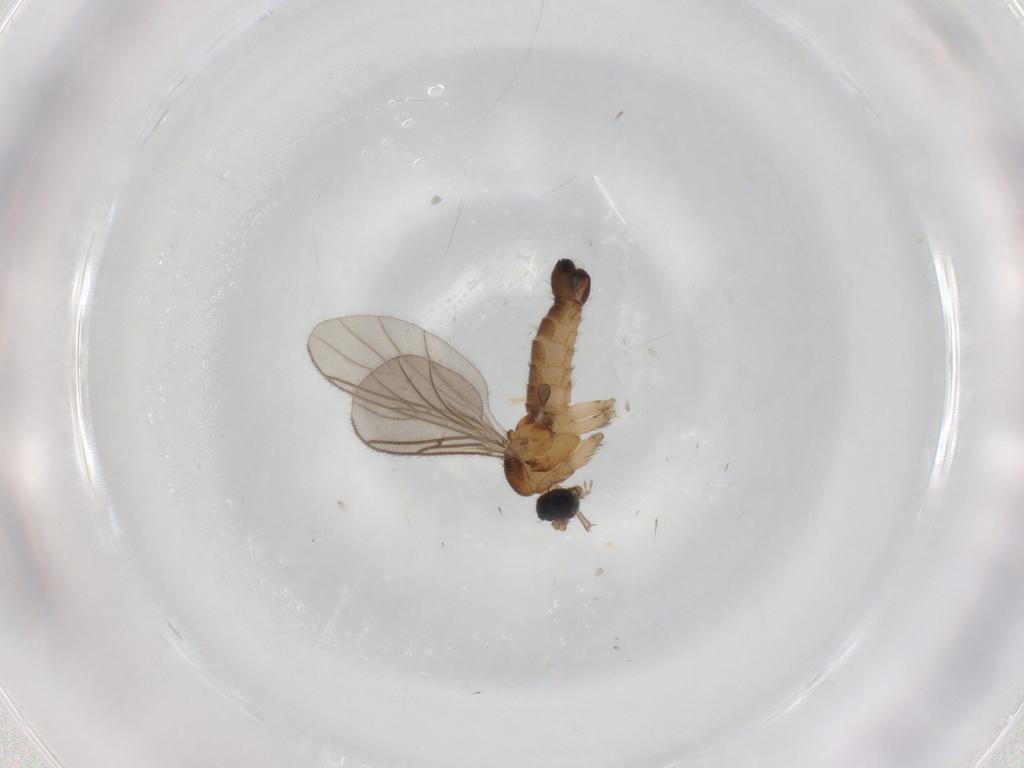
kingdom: Animalia
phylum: Arthropoda
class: Insecta
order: Diptera
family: Sciaridae
